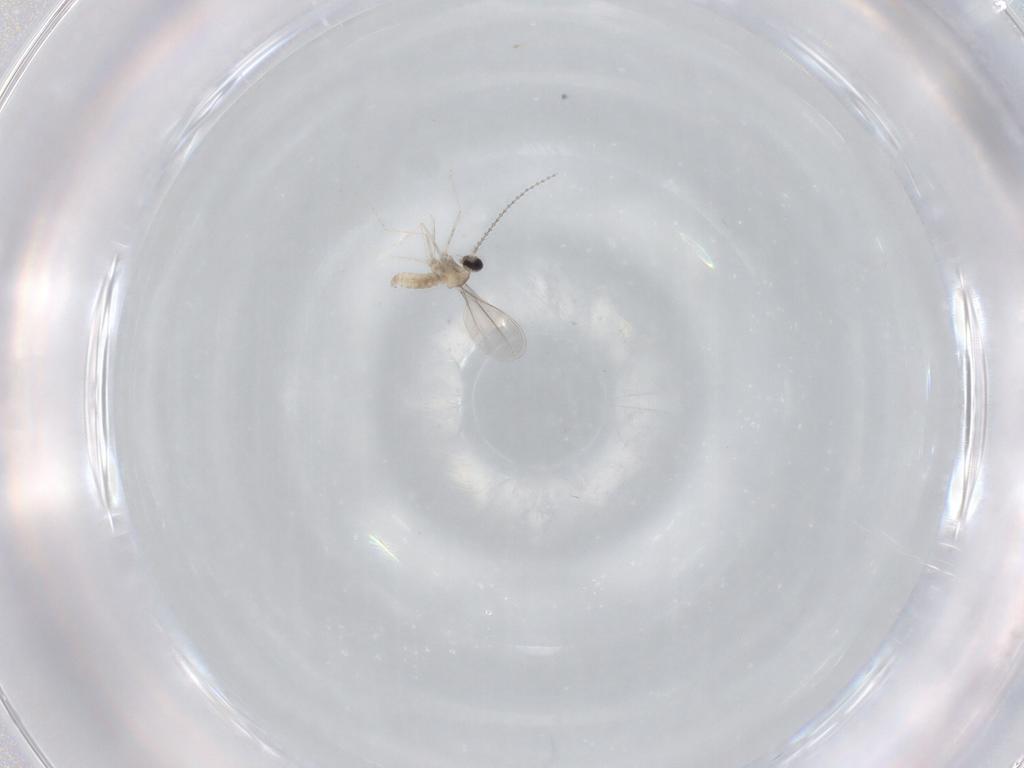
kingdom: Animalia
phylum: Arthropoda
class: Insecta
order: Diptera
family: Cecidomyiidae
